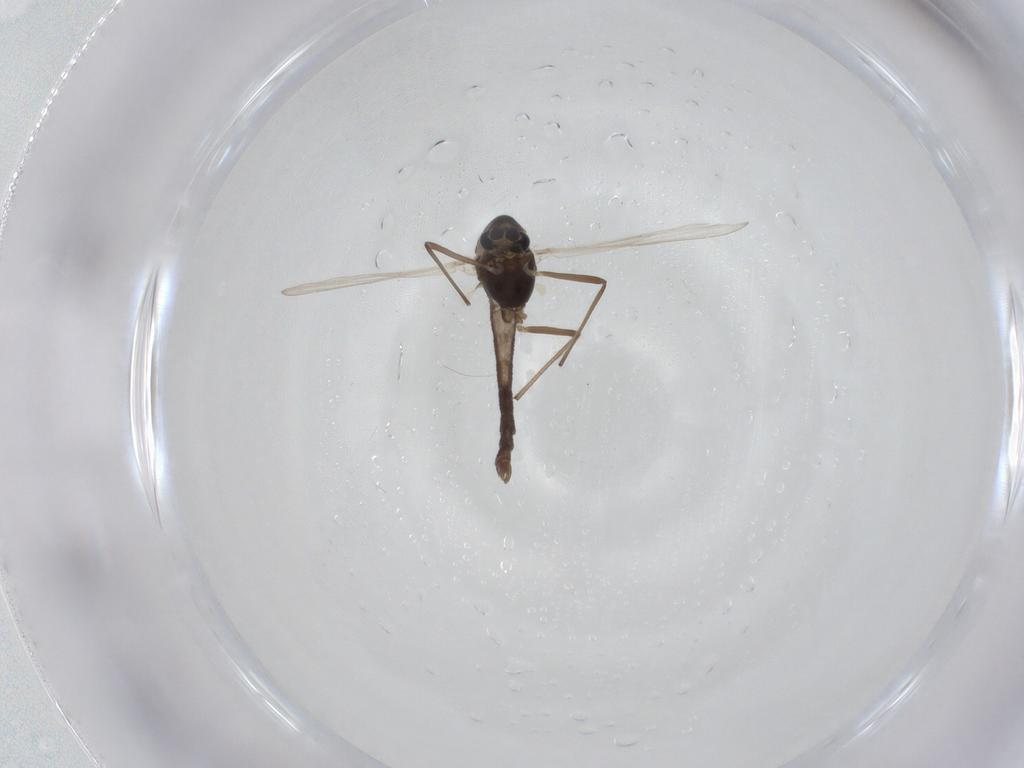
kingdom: Animalia
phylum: Arthropoda
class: Insecta
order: Diptera
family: Chironomidae
